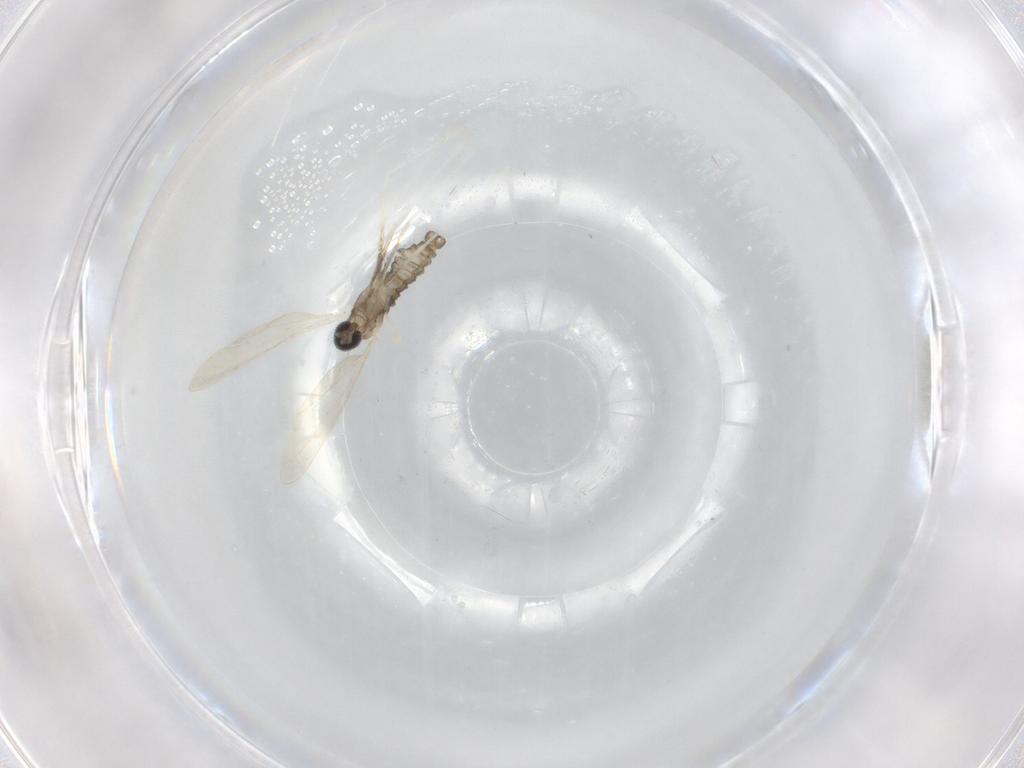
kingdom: Animalia
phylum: Arthropoda
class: Insecta
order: Diptera
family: Cecidomyiidae
